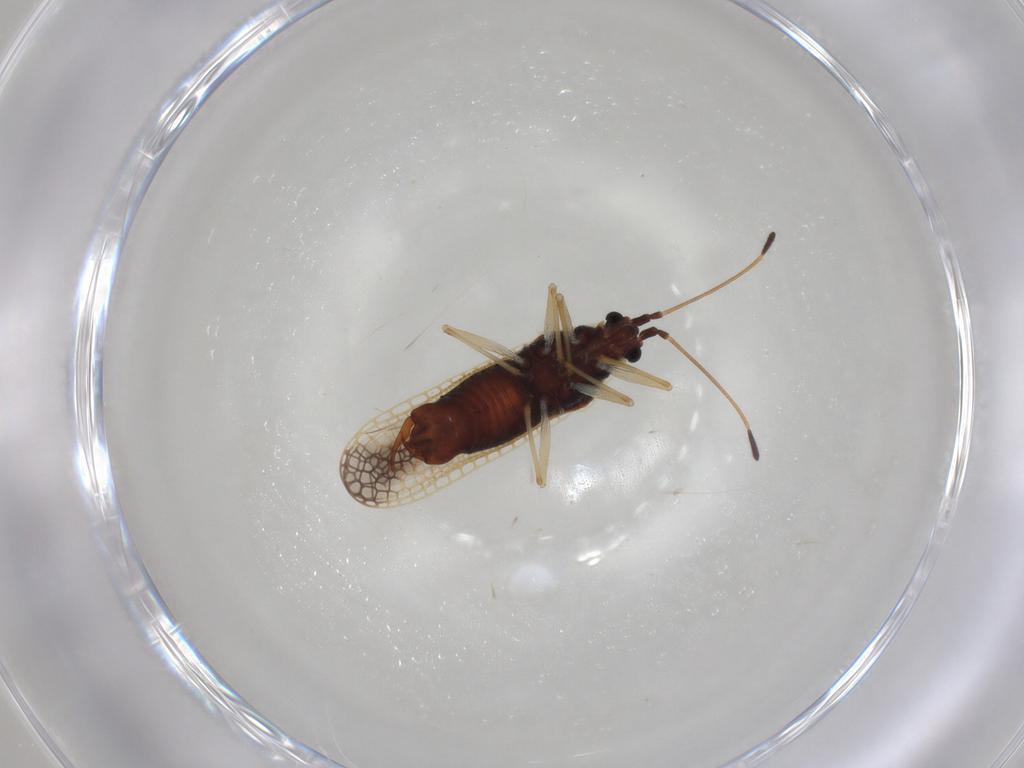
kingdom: Animalia
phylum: Arthropoda
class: Insecta
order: Hemiptera
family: Tingidae
